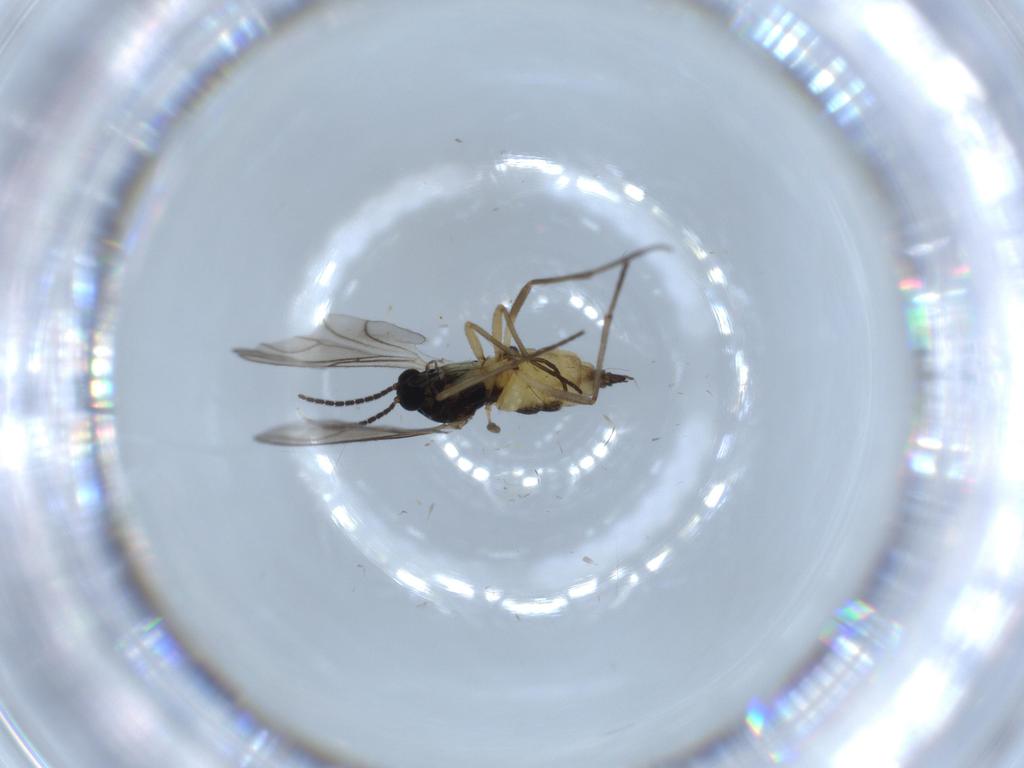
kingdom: Animalia
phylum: Arthropoda
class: Insecta
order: Diptera
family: Sciaridae
